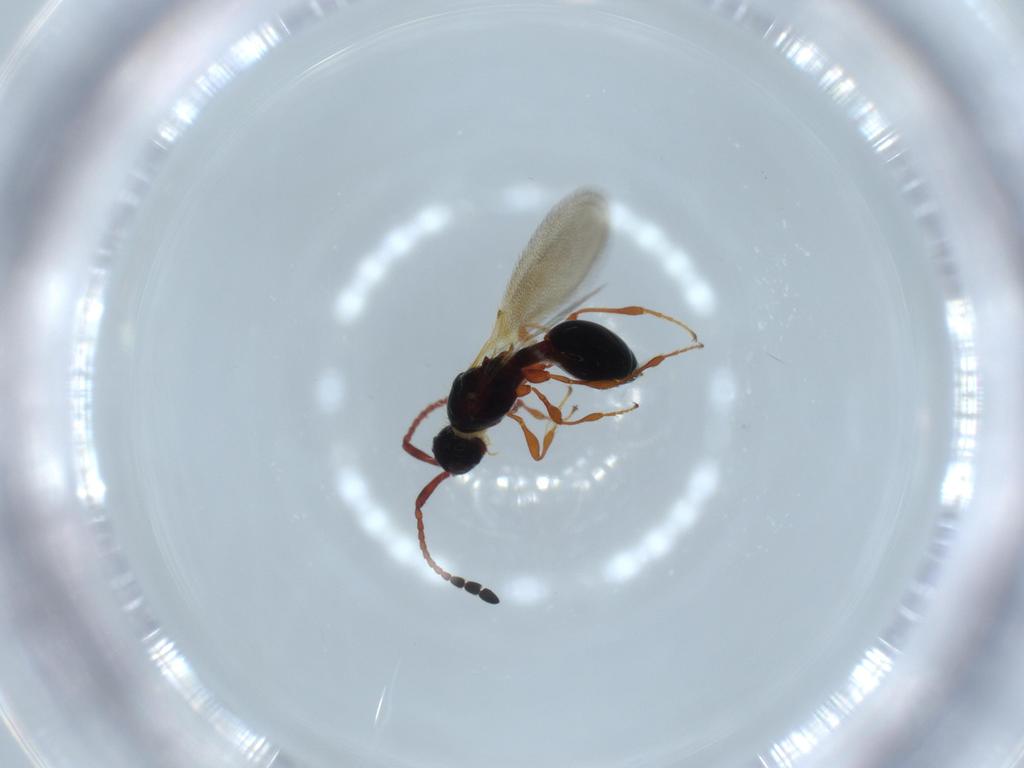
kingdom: Animalia
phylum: Arthropoda
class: Insecta
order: Hymenoptera
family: Diapriidae
